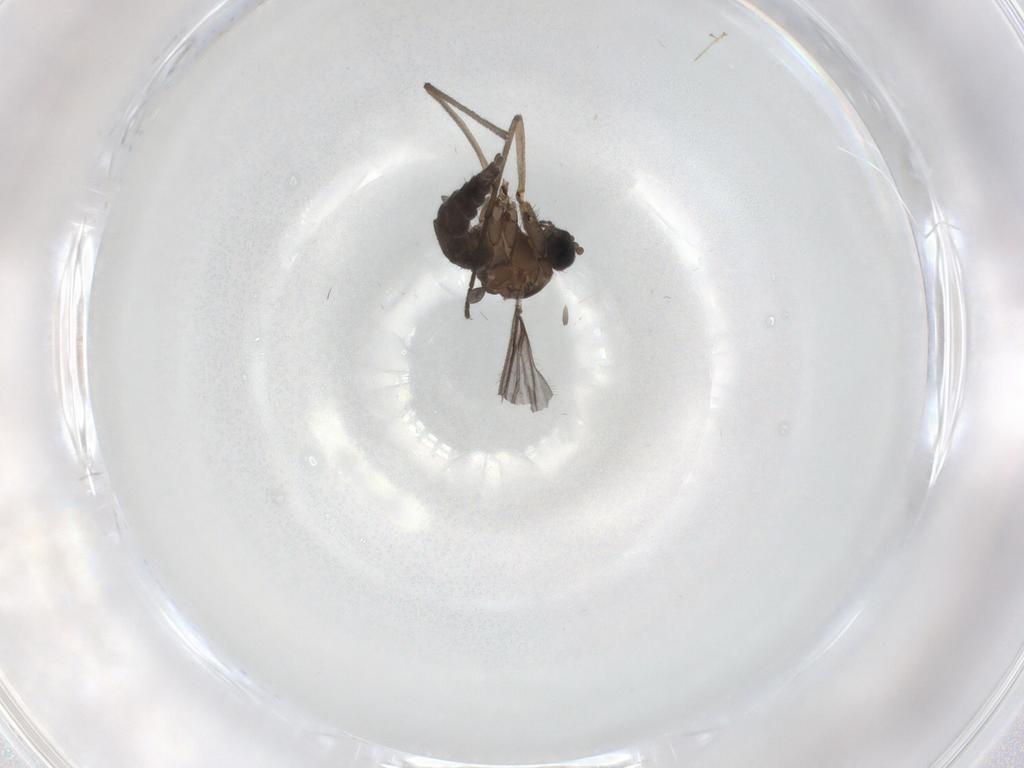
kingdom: Animalia
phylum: Arthropoda
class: Insecta
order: Diptera
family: Sciaridae
